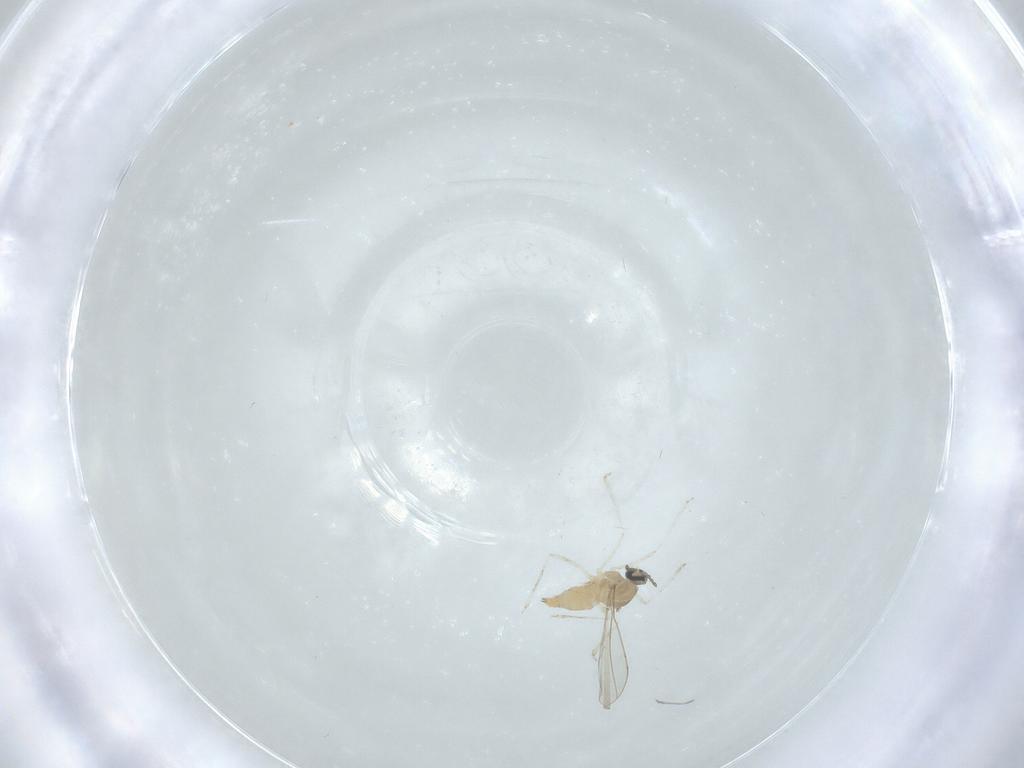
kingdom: Animalia
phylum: Arthropoda
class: Insecta
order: Diptera
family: Cecidomyiidae
